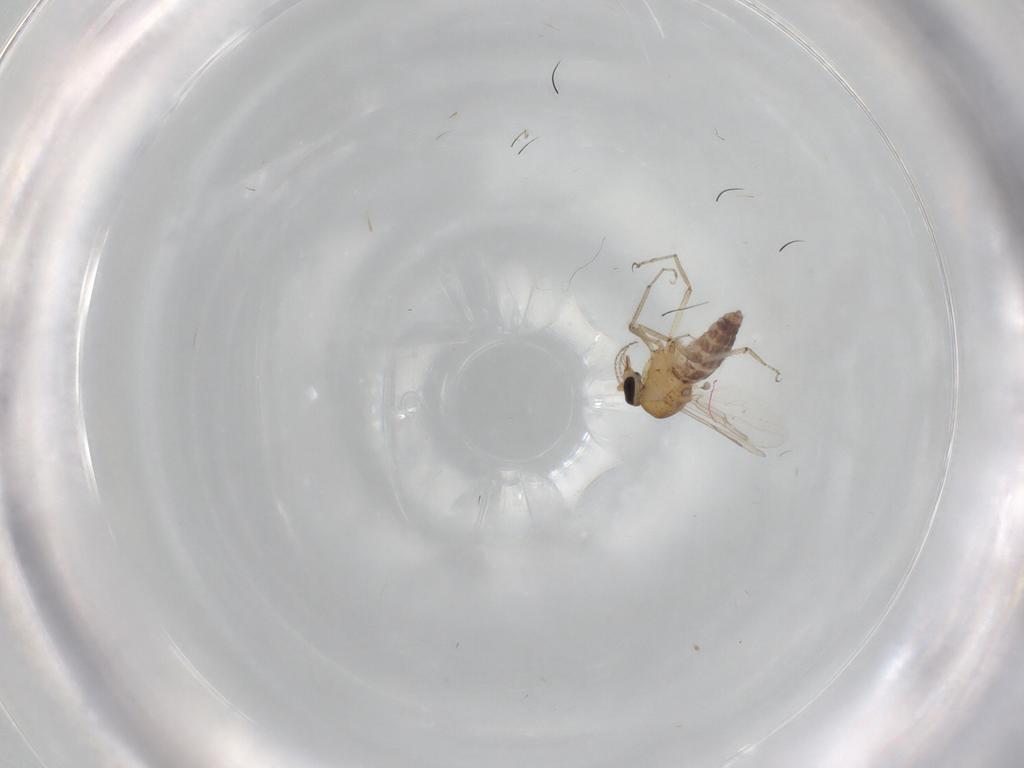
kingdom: Animalia
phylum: Arthropoda
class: Insecta
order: Diptera
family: Ceratopogonidae
